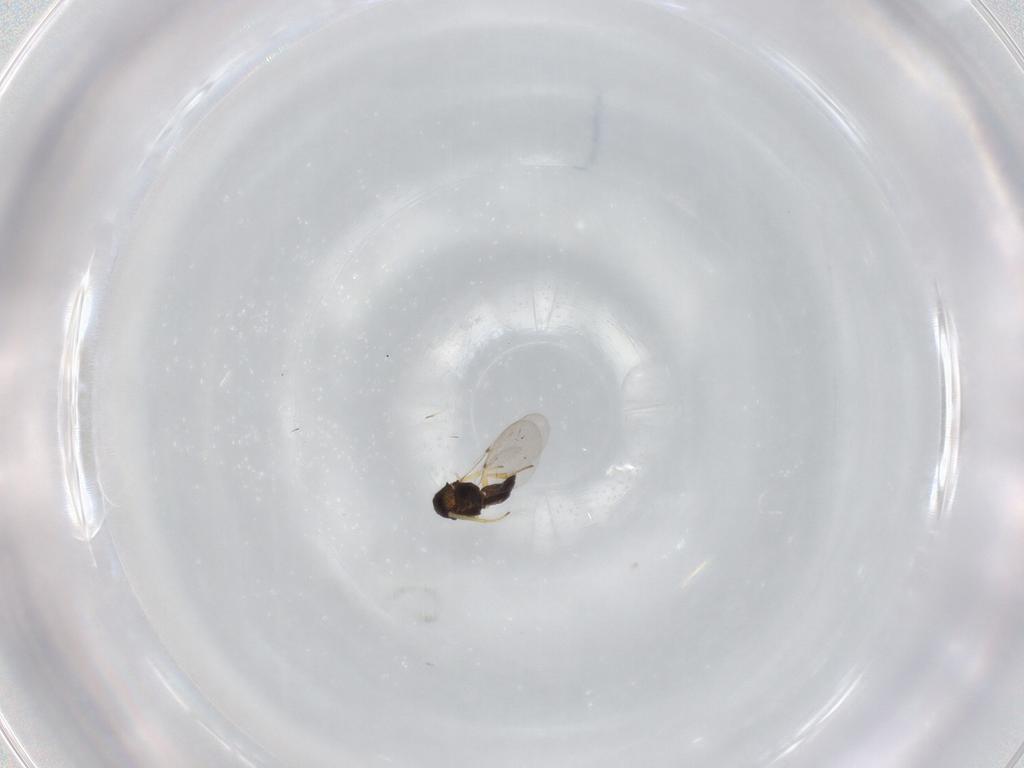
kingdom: Animalia
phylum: Arthropoda
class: Insecta
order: Hymenoptera
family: Encyrtidae
